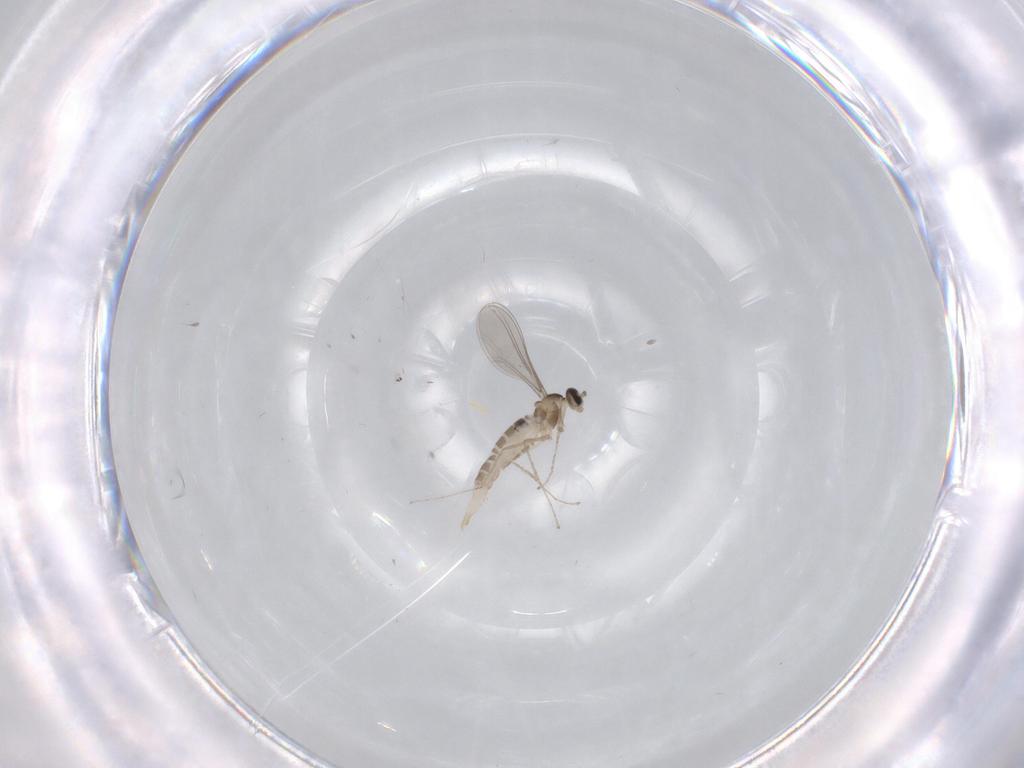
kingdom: Animalia
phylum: Arthropoda
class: Insecta
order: Diptera
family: Cecidomyiidae
